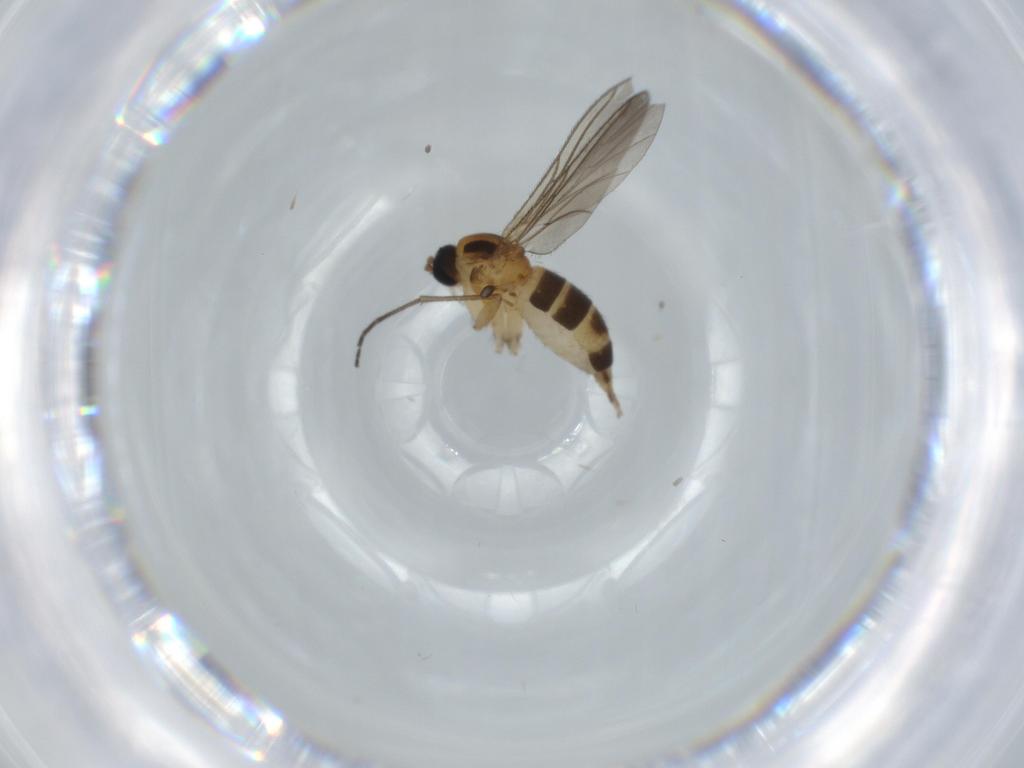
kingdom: Animalia
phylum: Arthropoda
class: Insecta
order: Diptera
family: Phoridae
